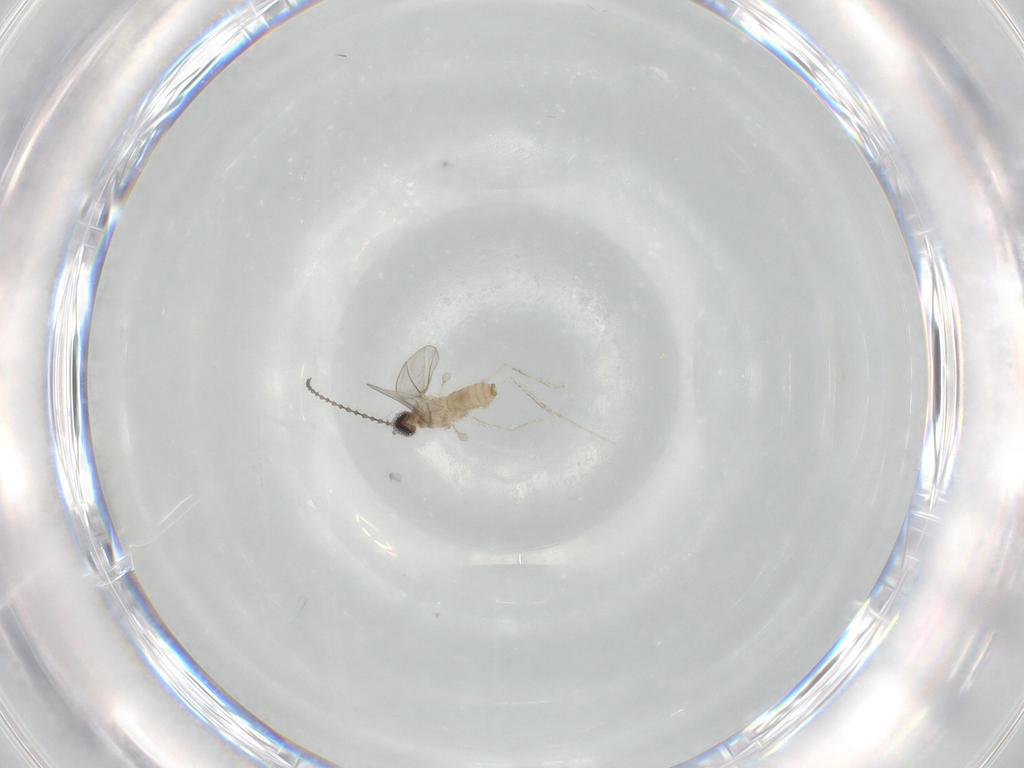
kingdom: Animalia
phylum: Arthropoda
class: Insecta
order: Diptera
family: Cecidomyiidae
